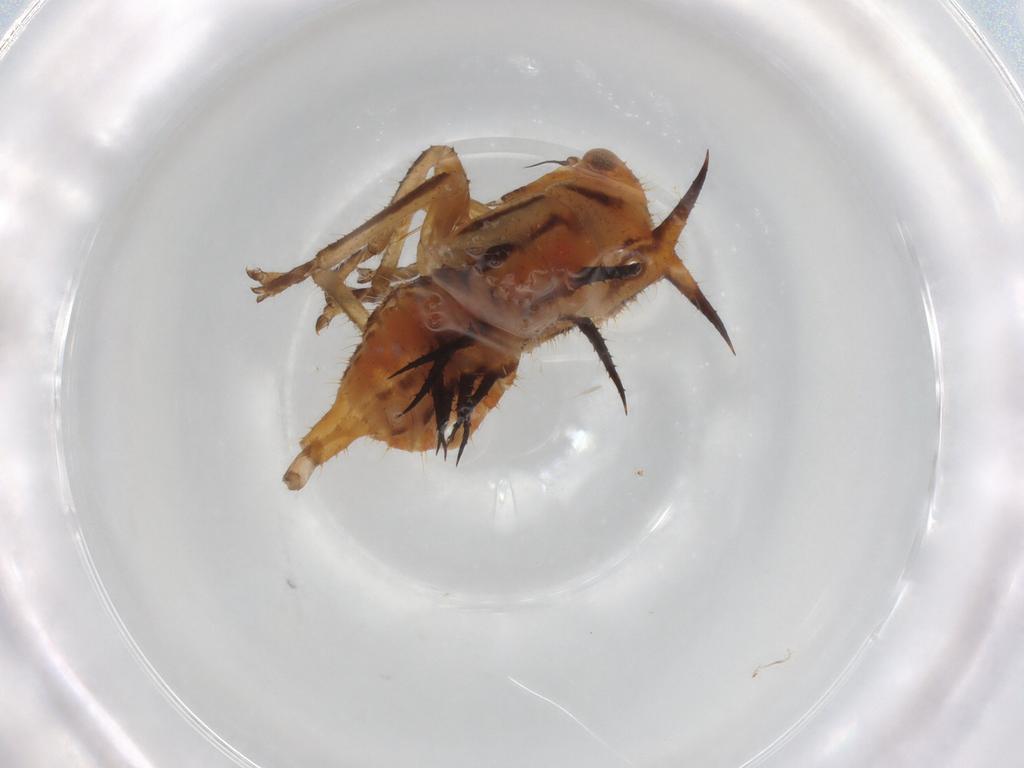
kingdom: Animalia
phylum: Arthropoda
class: Insecta
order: Hemiptera
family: Membracidae
